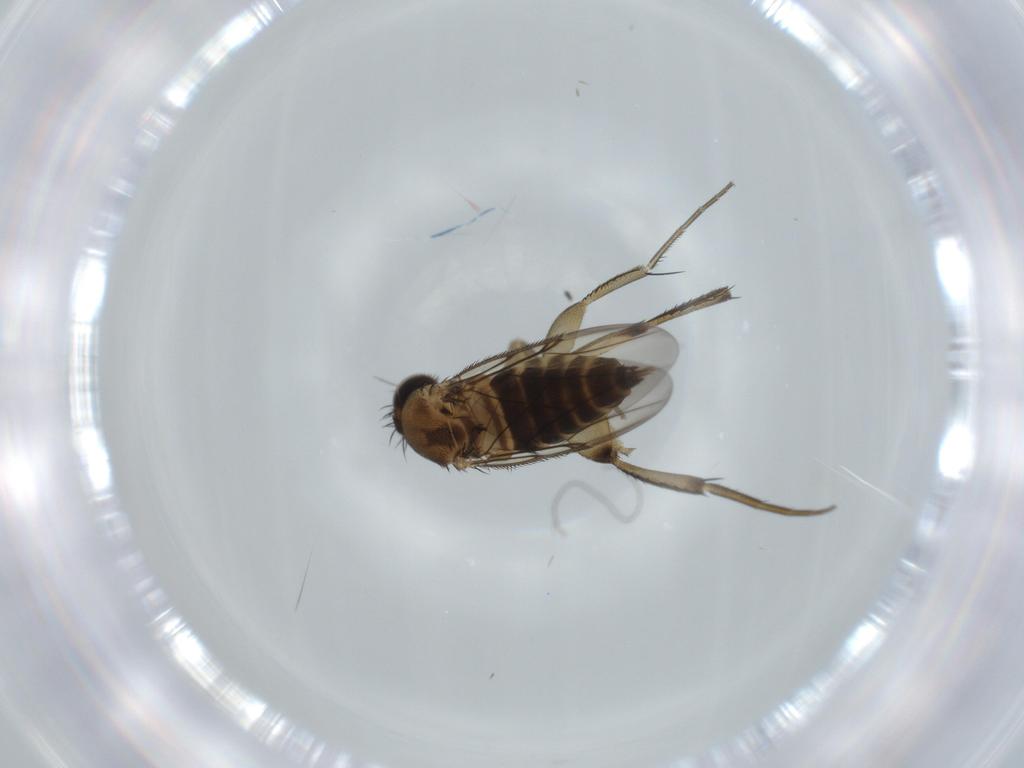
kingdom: Animalia
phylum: Arthropoda
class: Insecta
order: Diptera
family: Phoridae
